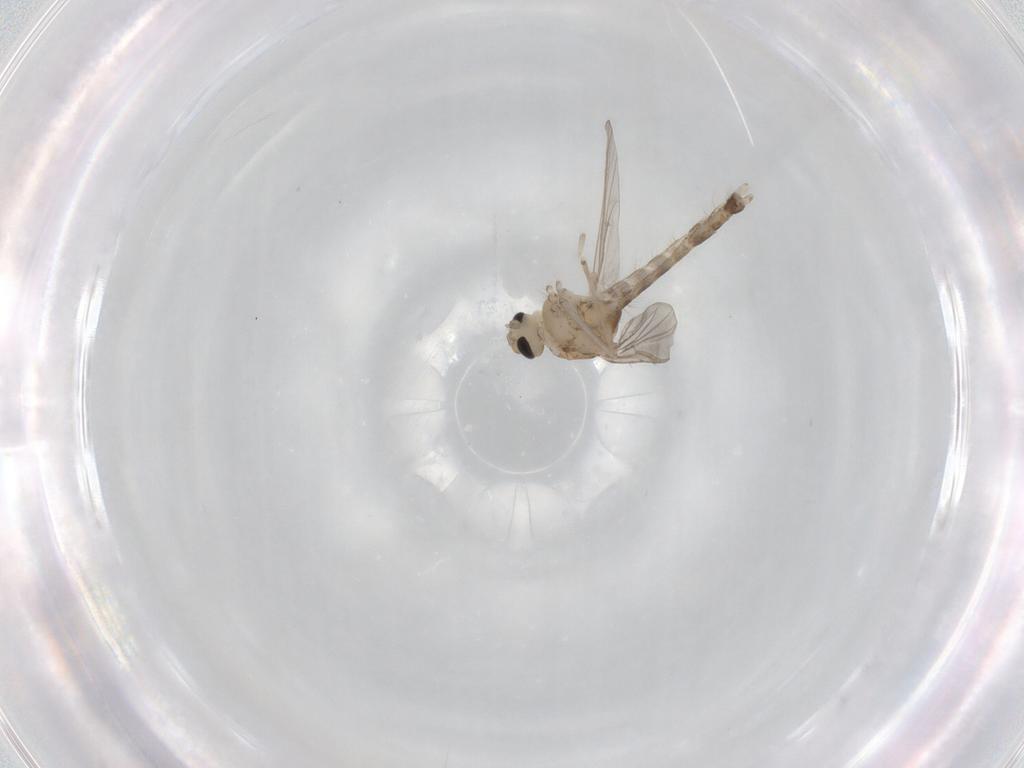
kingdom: Animalia
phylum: Arthropoda
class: Insecta
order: Diptera
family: Chironomidae
